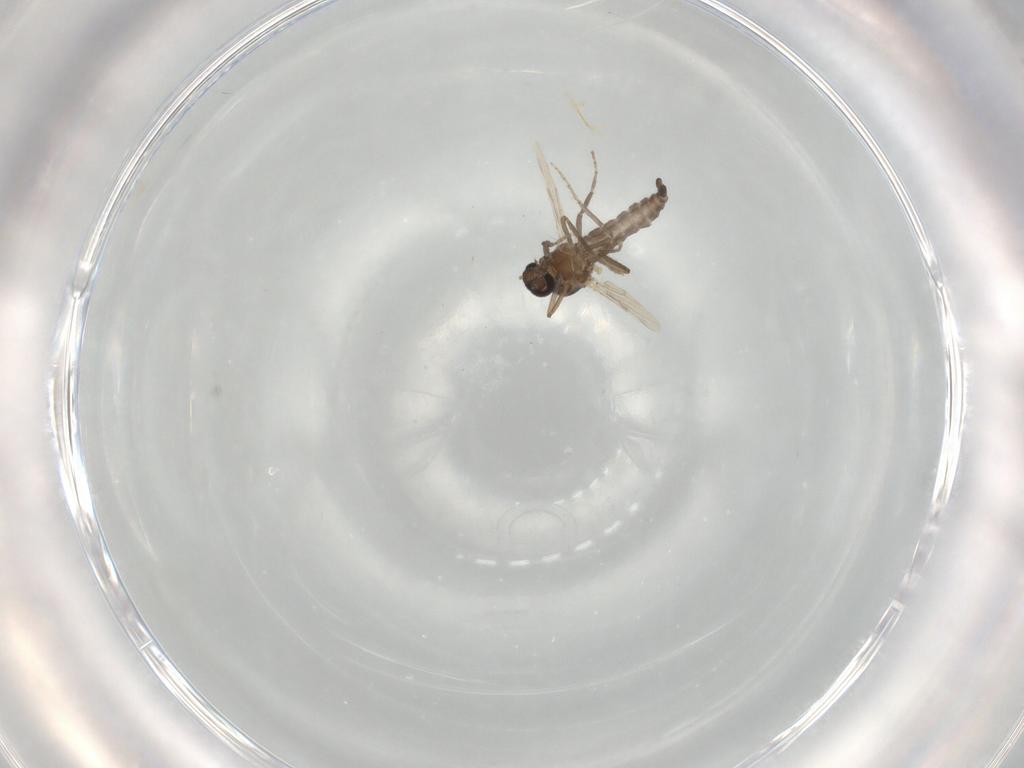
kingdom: Animalia
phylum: Arthropoda
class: Insecta
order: Diptera
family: Ceratopogonidae
